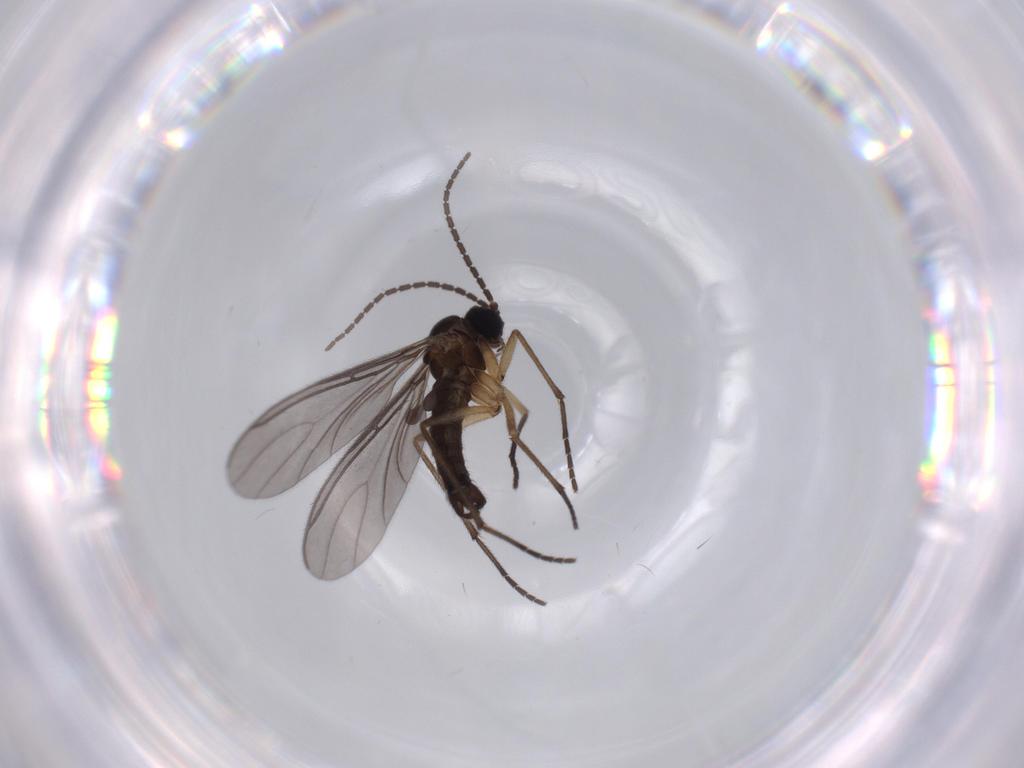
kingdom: Animalia
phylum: Arthropoda
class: Insecta
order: Diptera
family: Sciaridae
